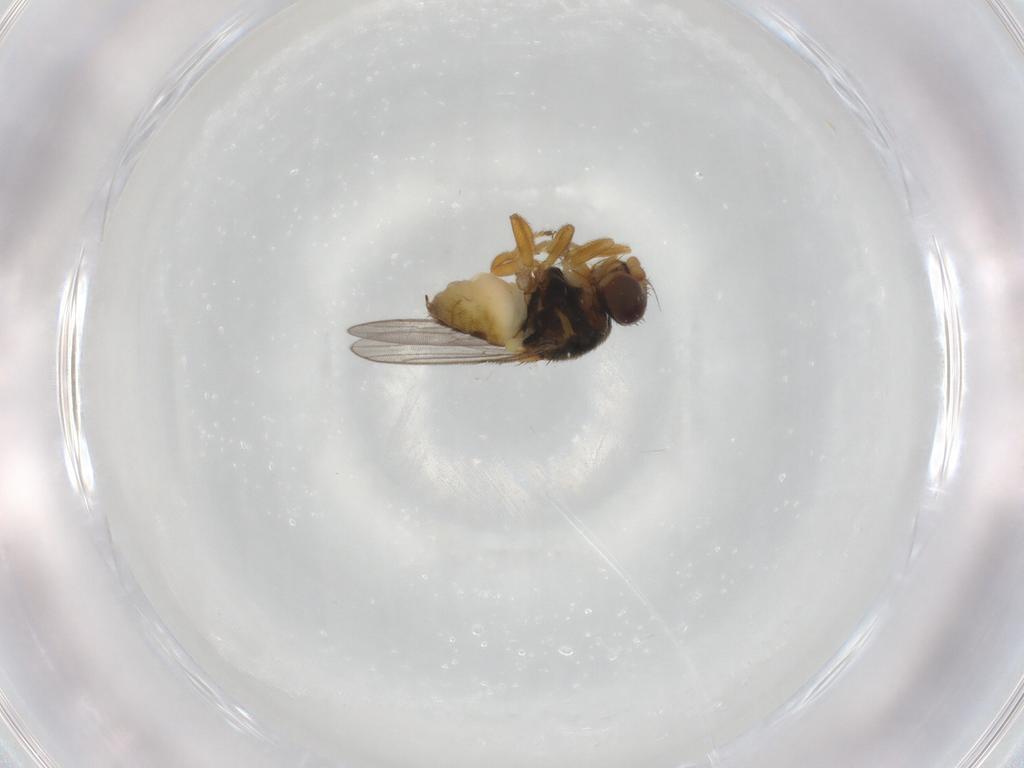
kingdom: Animalia
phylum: Arthropoda
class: Insecta
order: Diptera
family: Chloropidae
